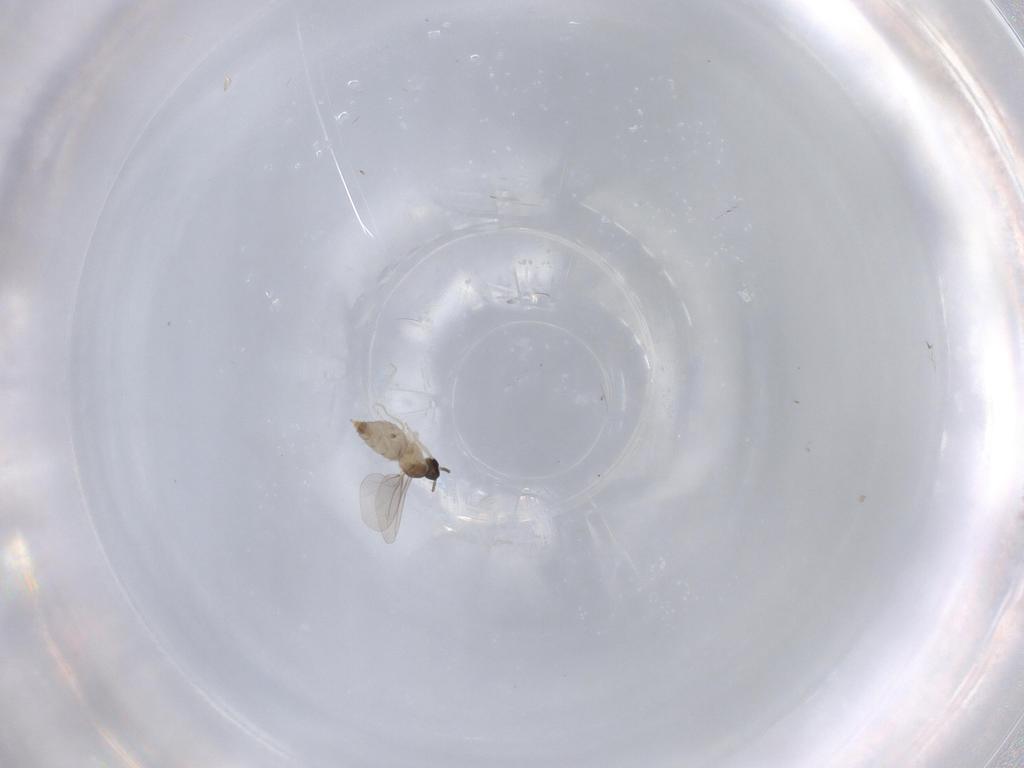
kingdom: Animalia
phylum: Arthropoda
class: Insecta
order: Diptera
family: Cecidomyiidae
